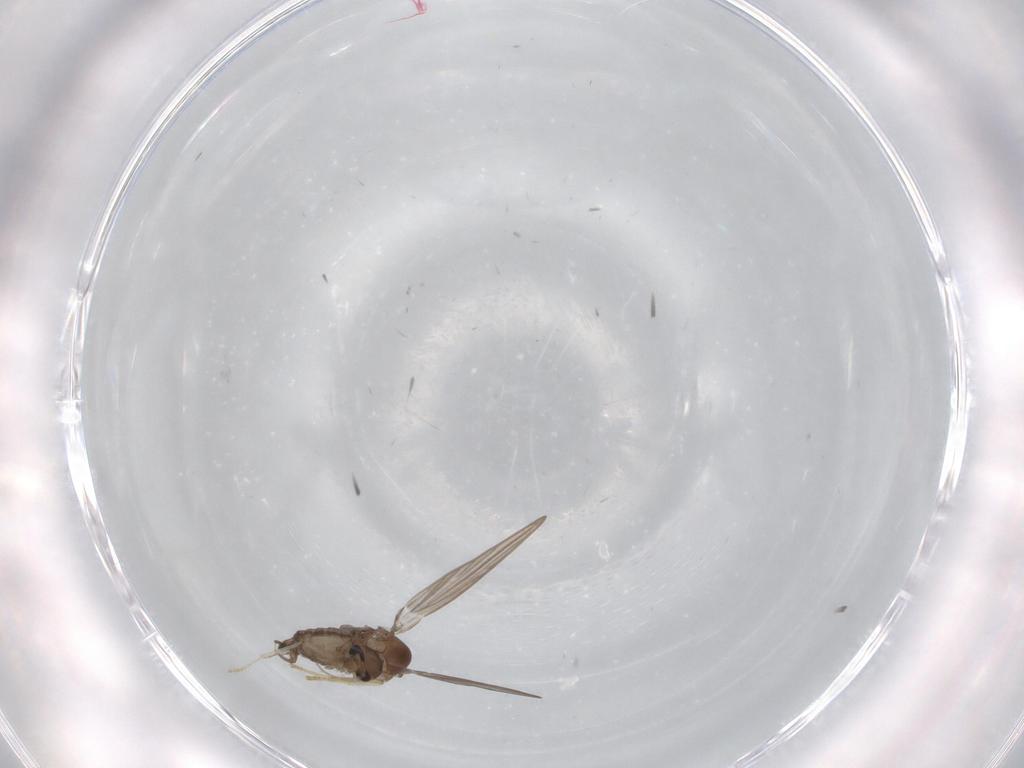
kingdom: Animalia
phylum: Arthropoda
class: Insecta
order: Diptera
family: Psychodidae
